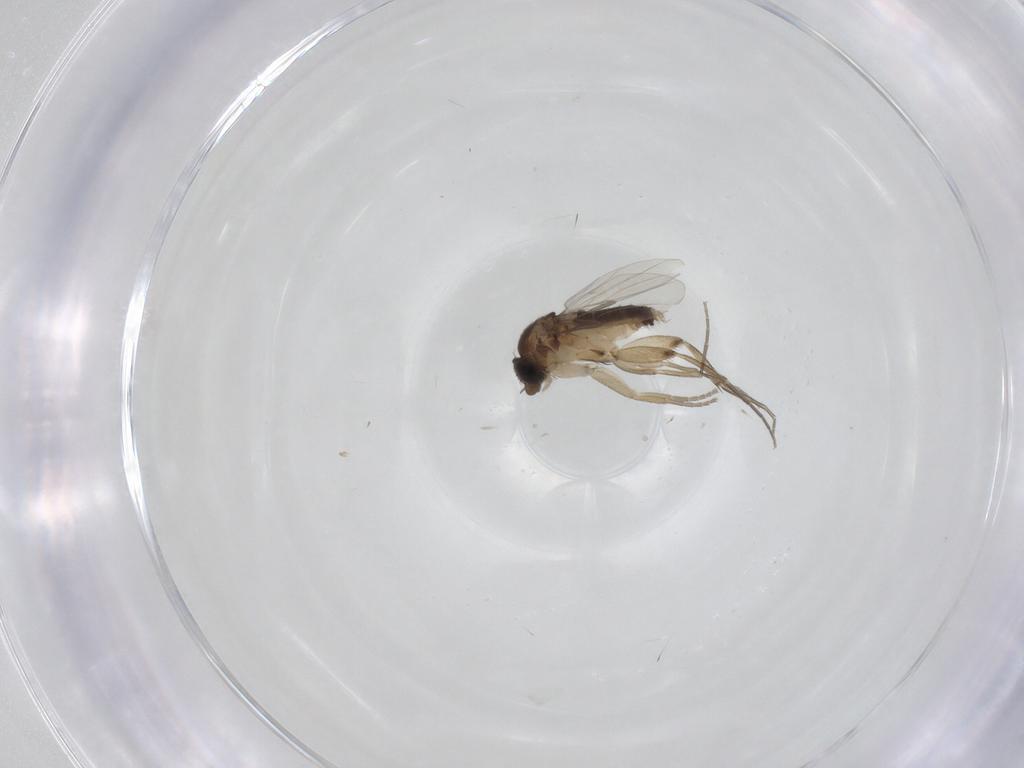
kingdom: Animalia
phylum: Arthropoda
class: Insecta
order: Diptera
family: Phoridae
